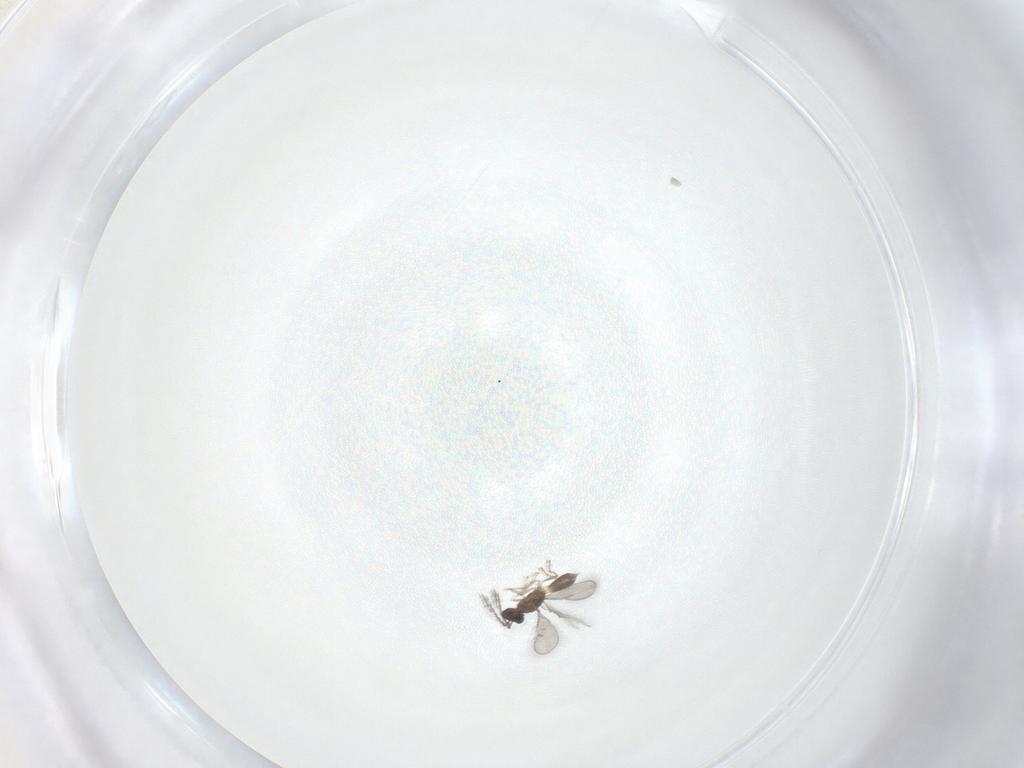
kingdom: Animalia
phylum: Arthropoda
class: Insecta
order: Hymenoptera
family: Eulophidae
